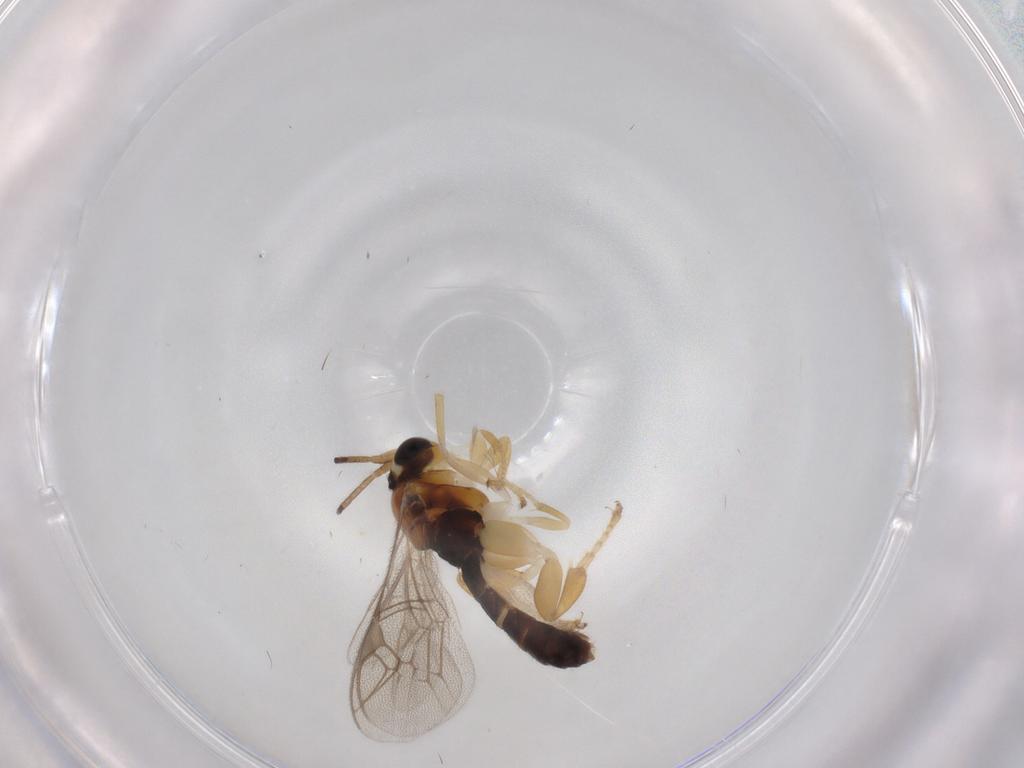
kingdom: Animalia
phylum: Arthropoda
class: Insecta
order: Hymenoptera
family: Ichneumonidae
